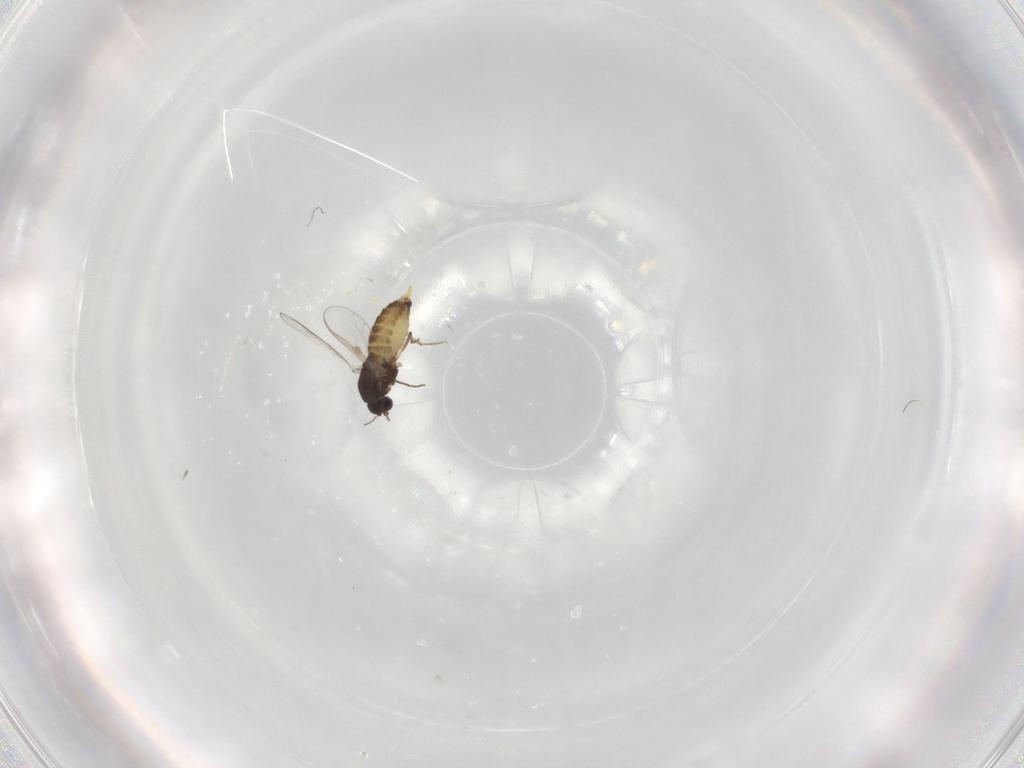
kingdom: Animalia
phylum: Arthropoda
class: Insecta
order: Diptera
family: Chironomidae
